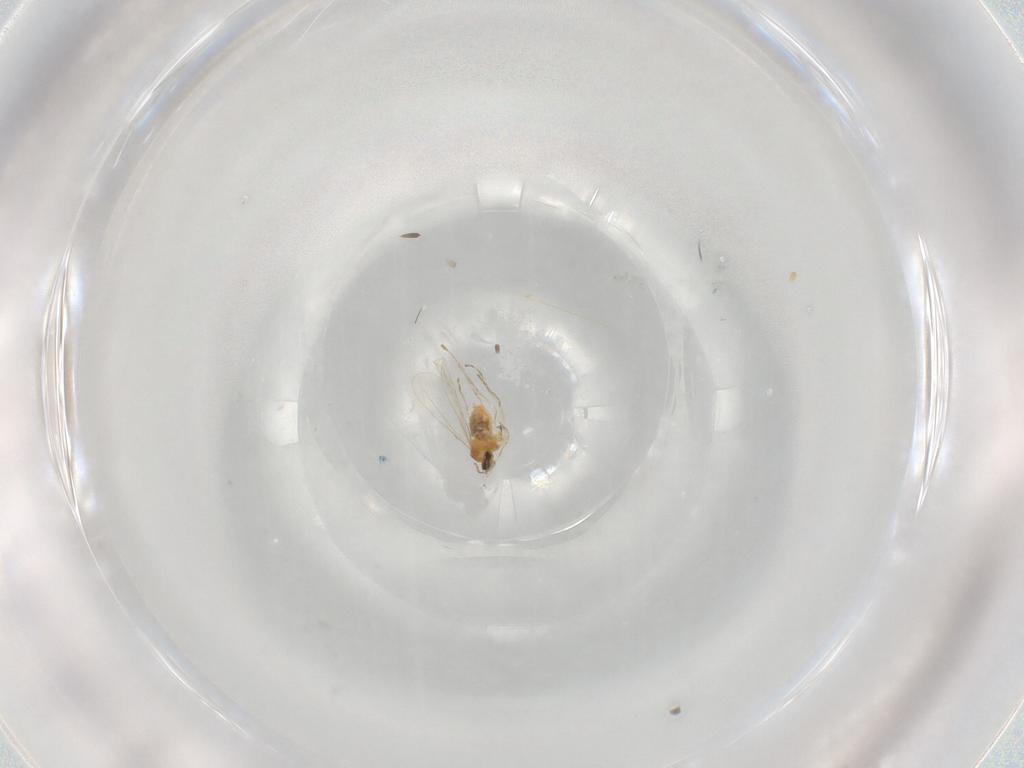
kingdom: Animalia
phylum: Arthropoda
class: Insecta
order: Diptera
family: Chloropidae
